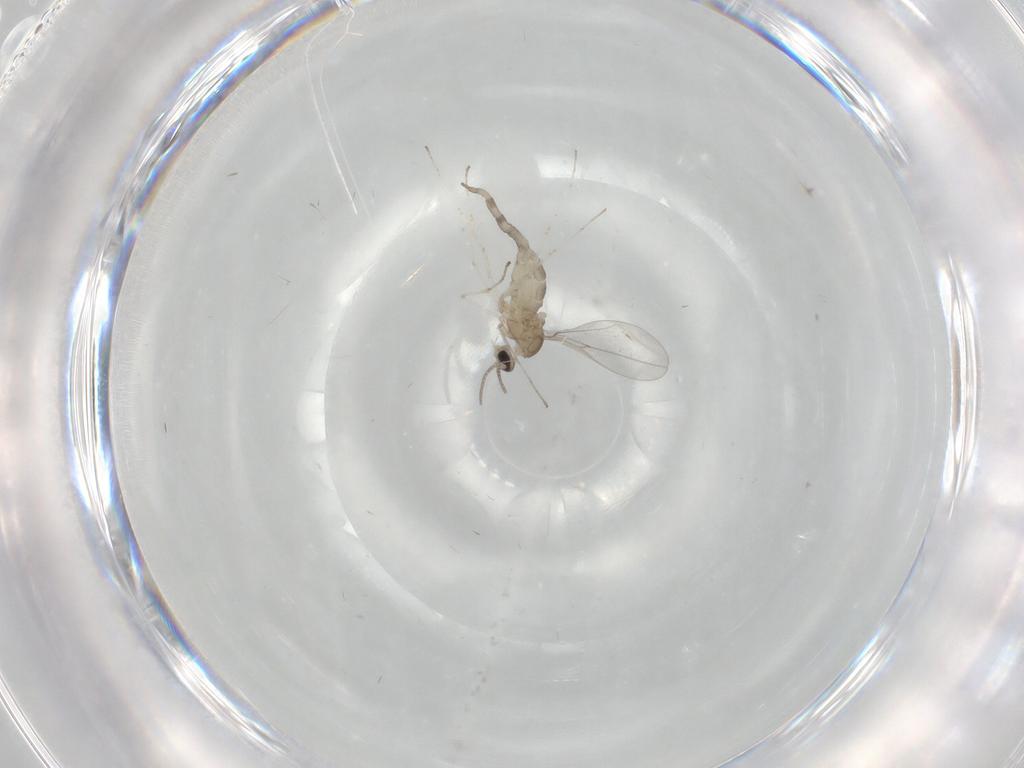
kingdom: Animalia
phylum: Arthropoda
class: Insecta
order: Diptera
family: Cecidomyiidae
